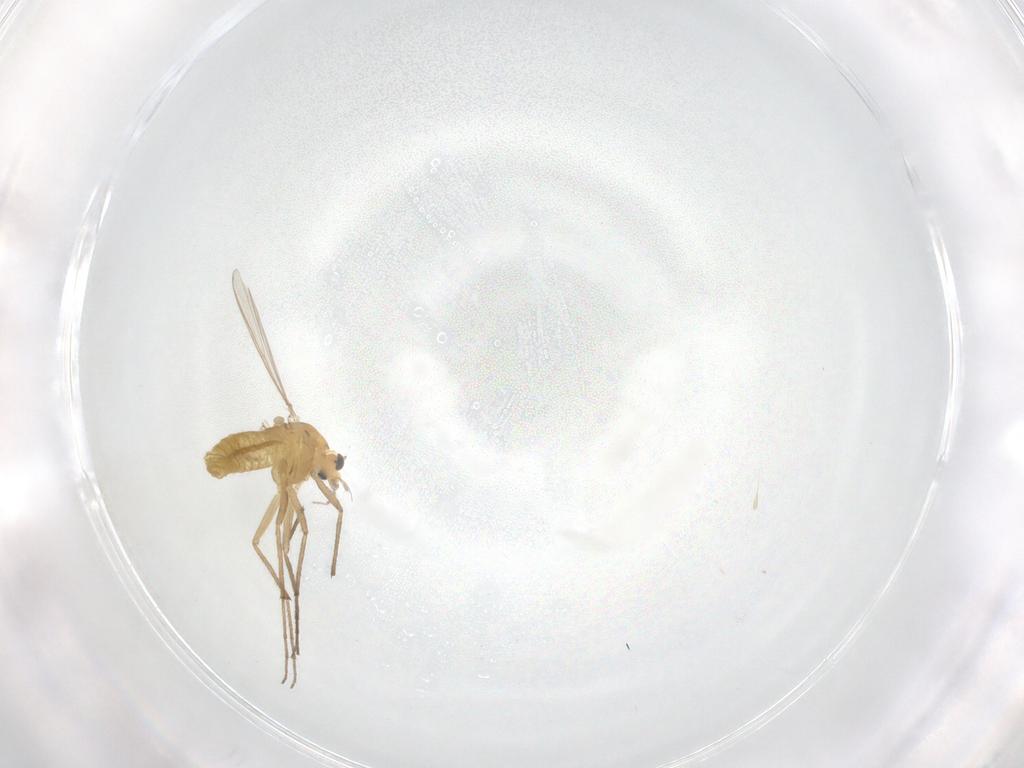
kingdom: Animalia
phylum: Arthropoda
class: Insecta
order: Diptera
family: Chironomidae
